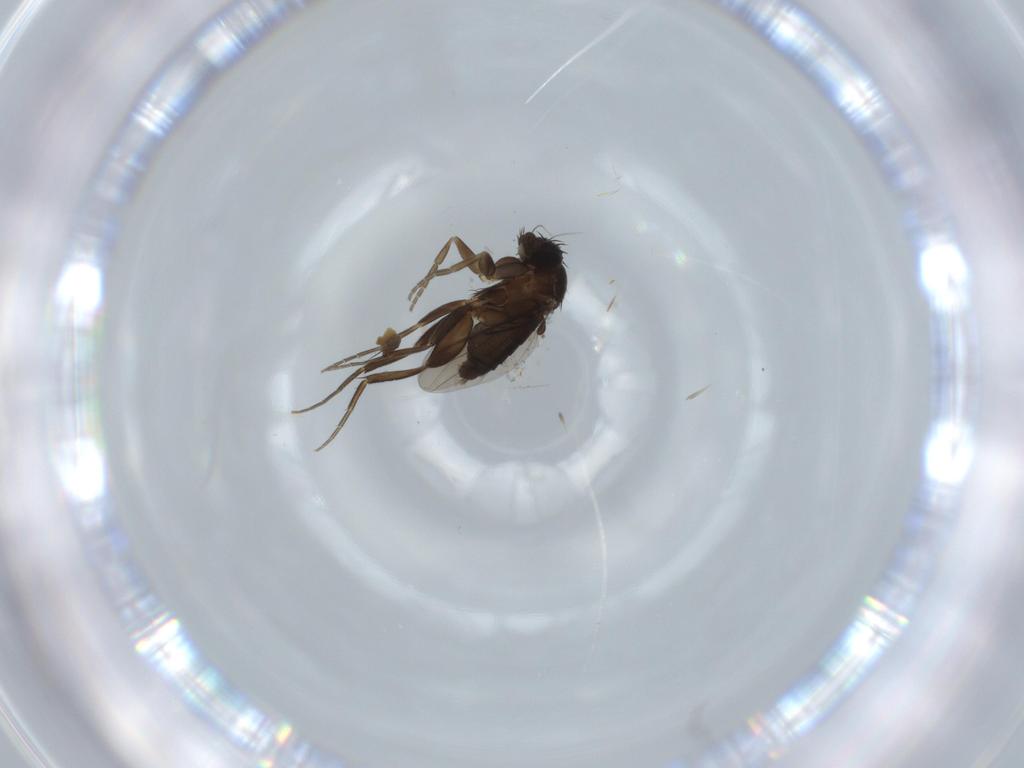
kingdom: Animalia
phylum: Arthropoda
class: Insecta
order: Diptera
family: Phoridae
